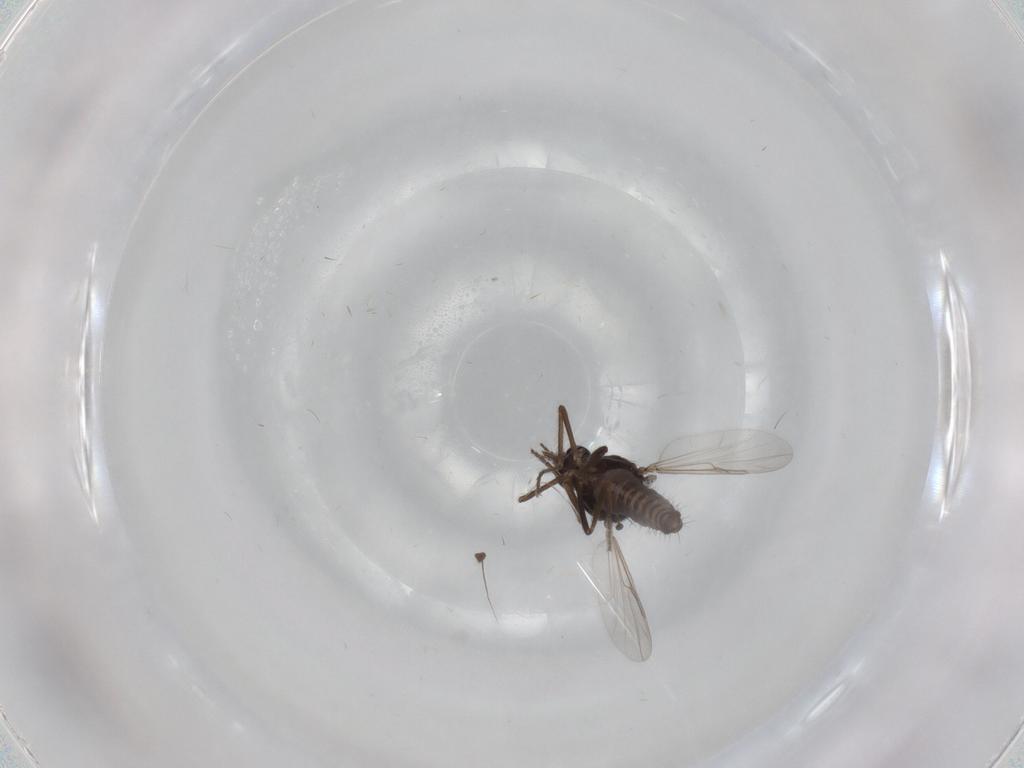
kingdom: Animalia
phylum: Arthropoda
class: Insecta
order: Diptera
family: Ceratopogonidae
